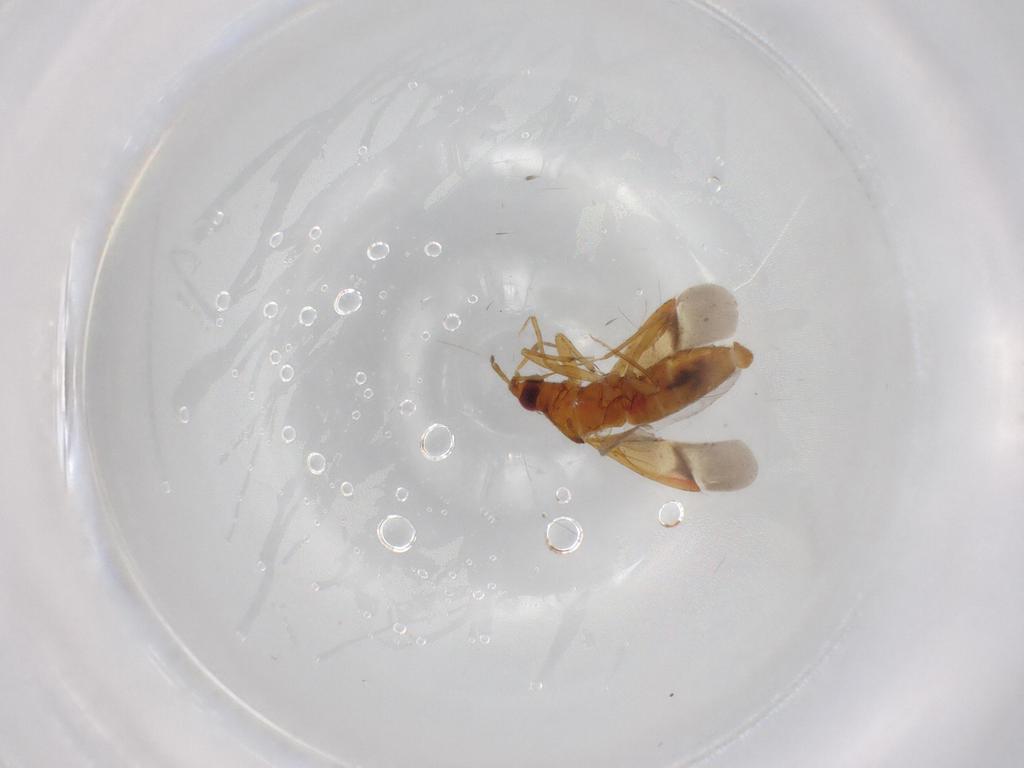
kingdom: Animalia
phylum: Arthropoda
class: Insecta
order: Hemiptera
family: Anthocoridae
